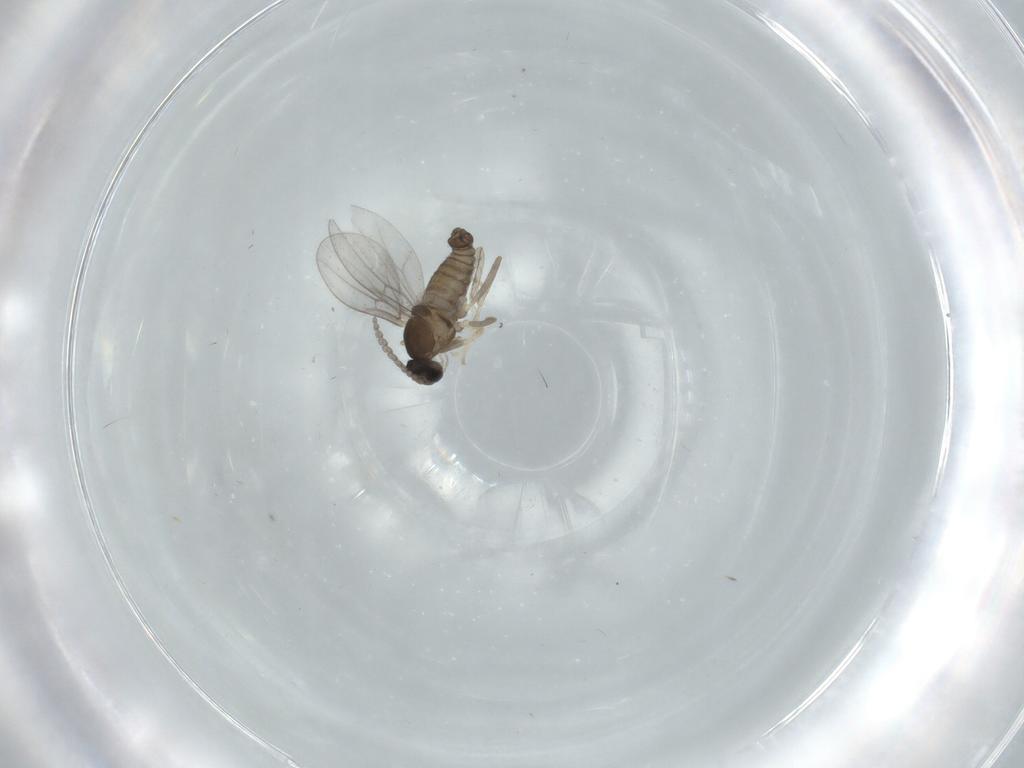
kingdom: Animalia
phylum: Arthropoda
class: Insecta
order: Diptera
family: Cecidomyiidae
